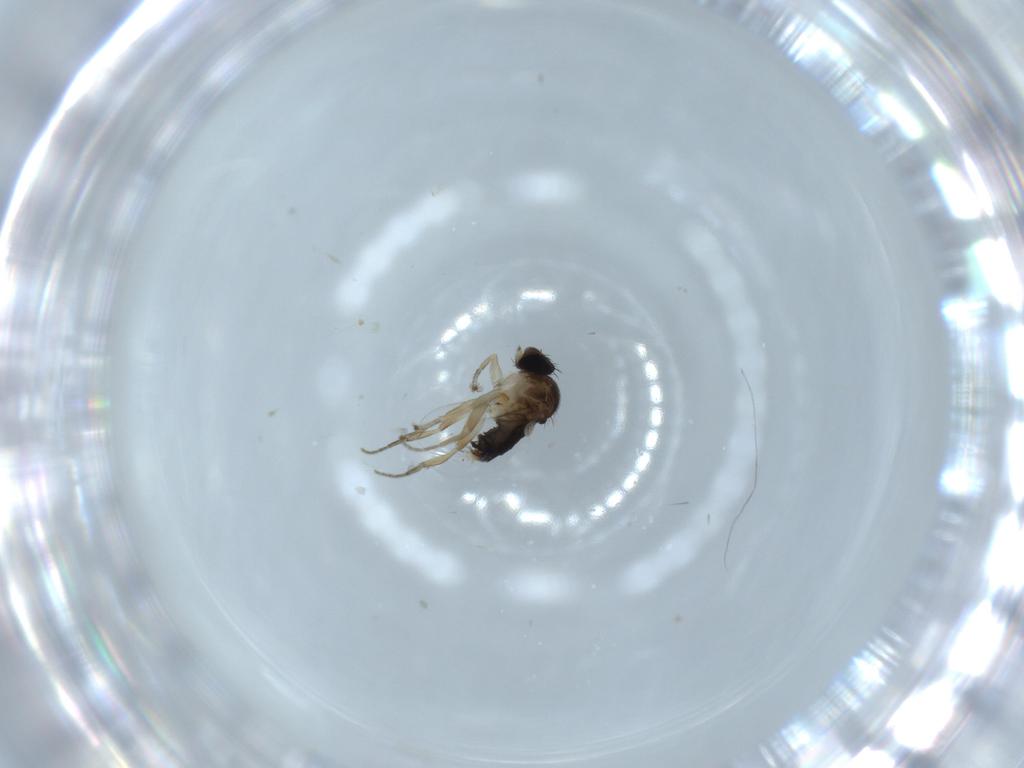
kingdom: Animalia
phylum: Arthropoda
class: Insecta
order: Diptera
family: Phoridae
